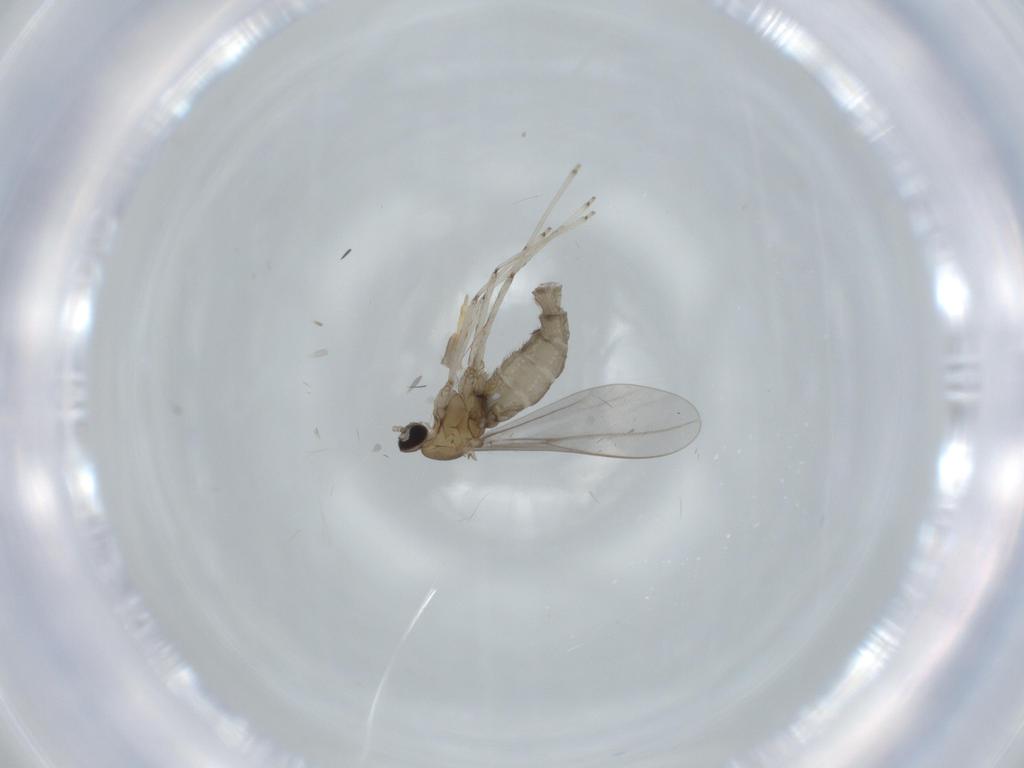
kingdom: Animalia
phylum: Arthropoda
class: Insecta
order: Diptera
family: Cecidomyiidae
